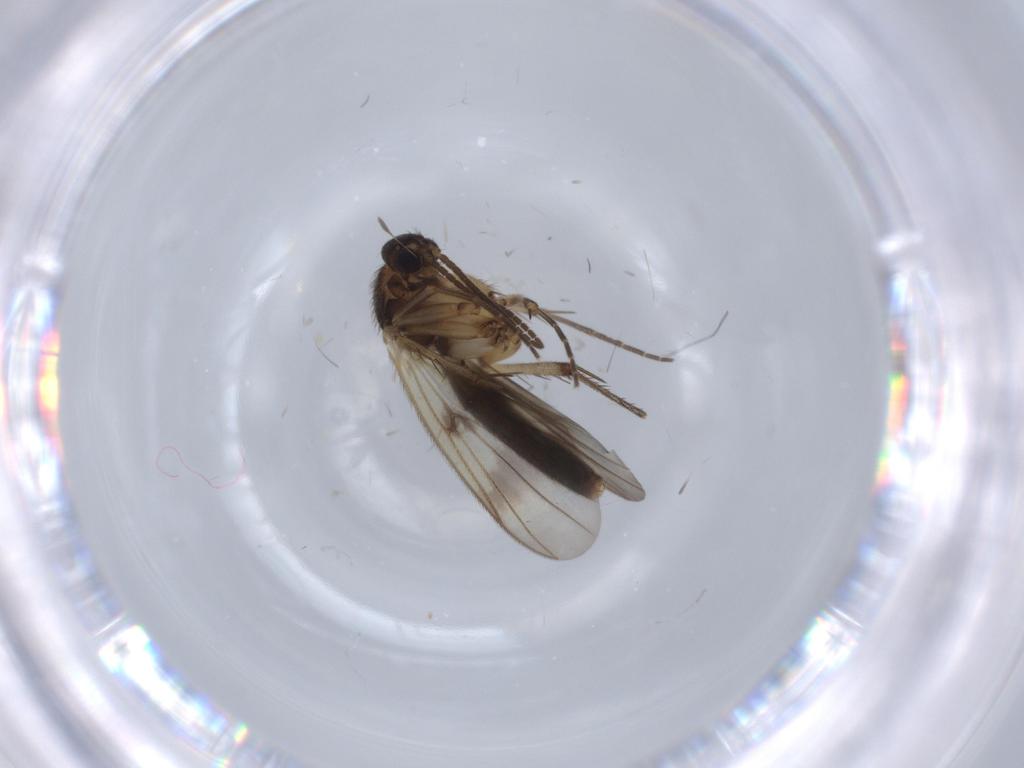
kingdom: Animalia
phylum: Arthropoda
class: Insecta
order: Diptera
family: Mycetophilidae
